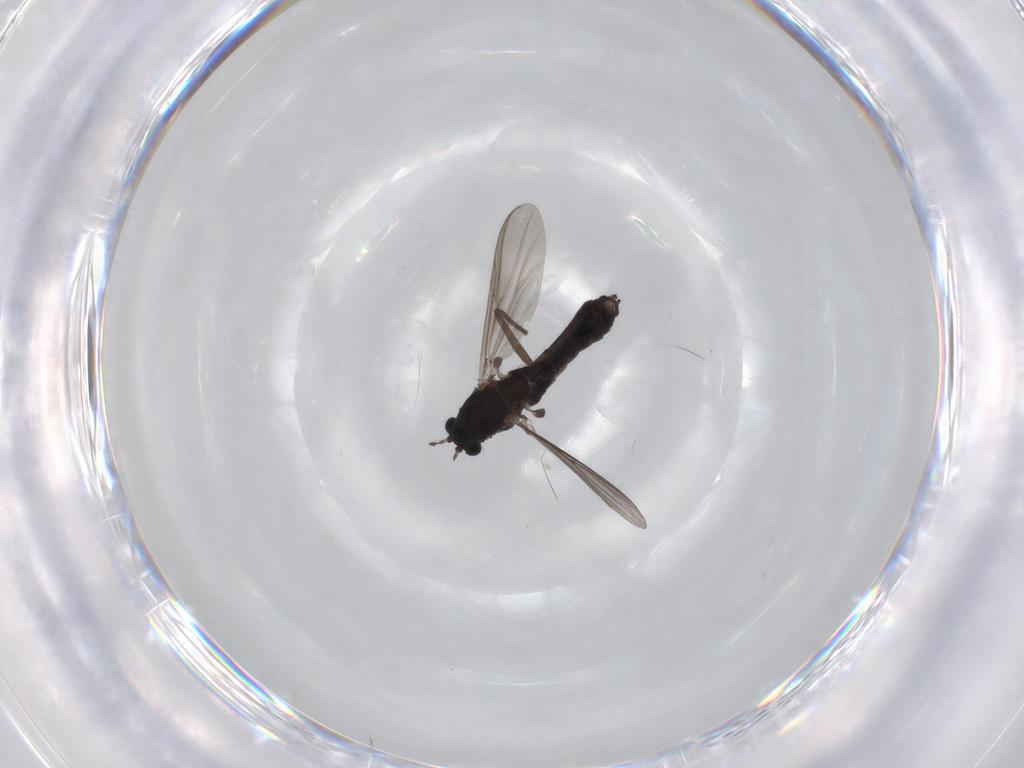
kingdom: Animalia
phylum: Arthropoda
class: Insecta
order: Diptera
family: Chironomidae
